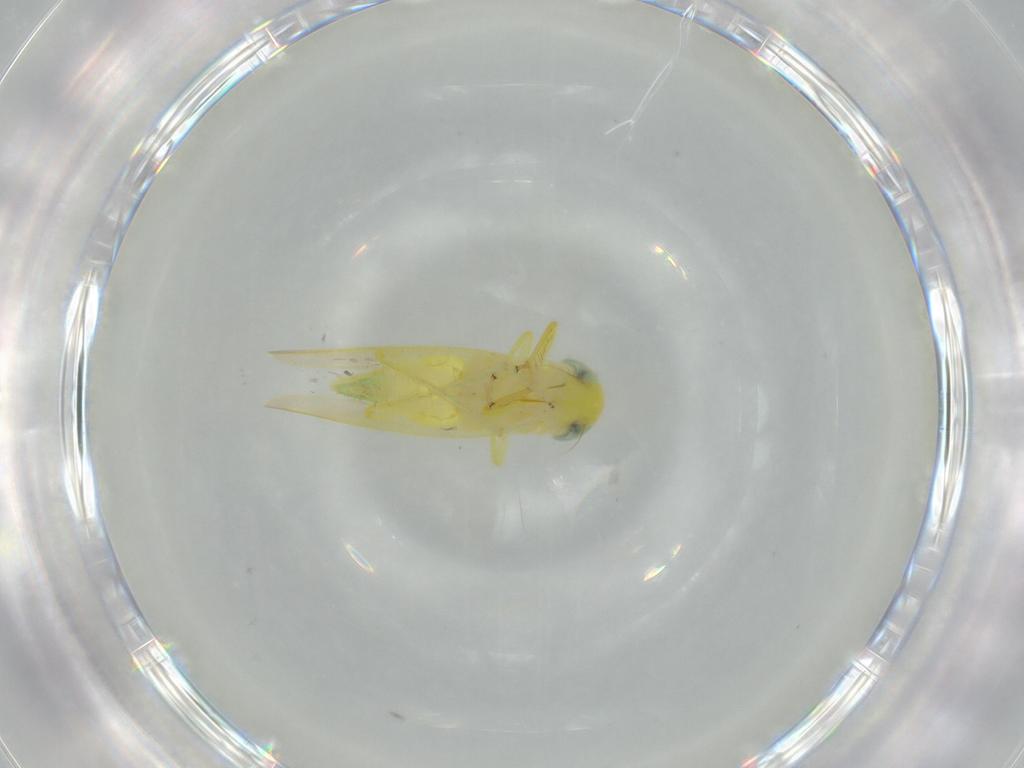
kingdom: Animalia
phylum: Arthropoda
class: Insecta
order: Hemiptera
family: Cicadellidae
